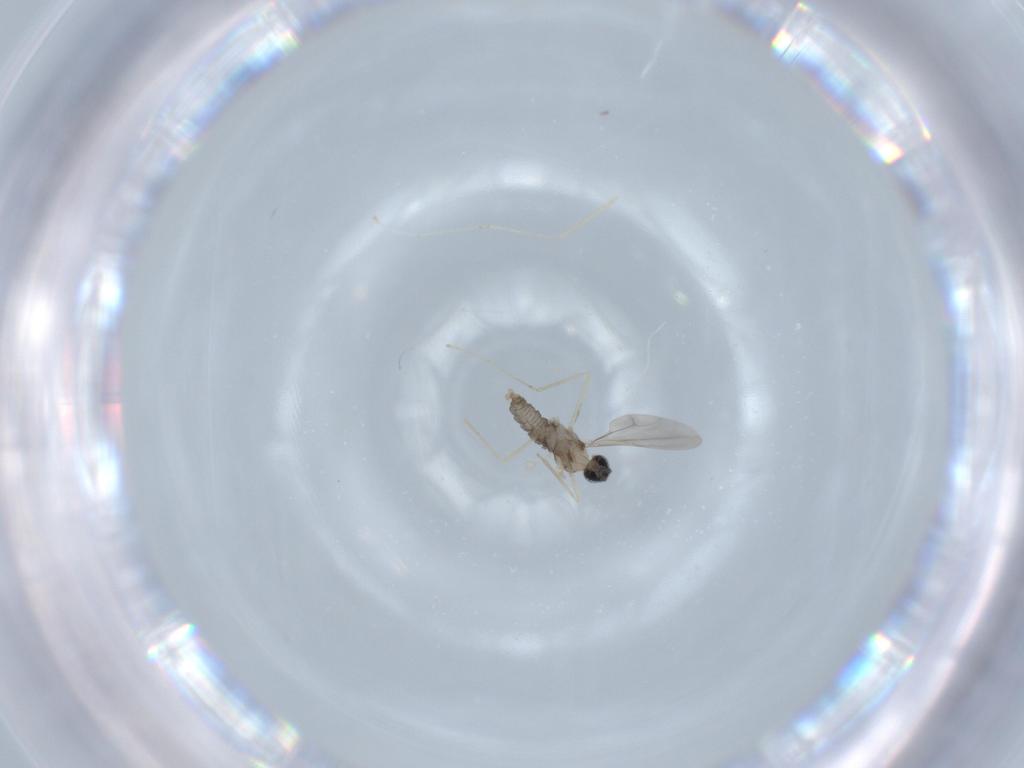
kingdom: Animalia
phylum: Arthropoda
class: Insecta
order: Diptera
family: Cecidomyiidae
